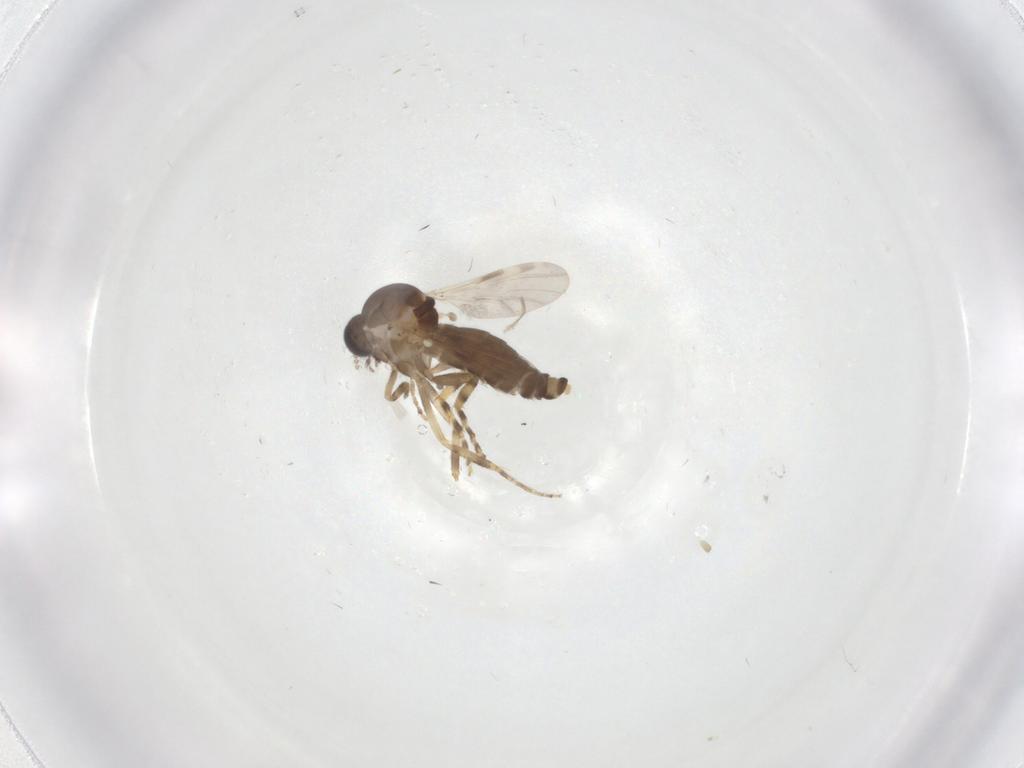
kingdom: Animalia
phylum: Arthropoda
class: Insecta
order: Diptera
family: Ceratopogonidae
